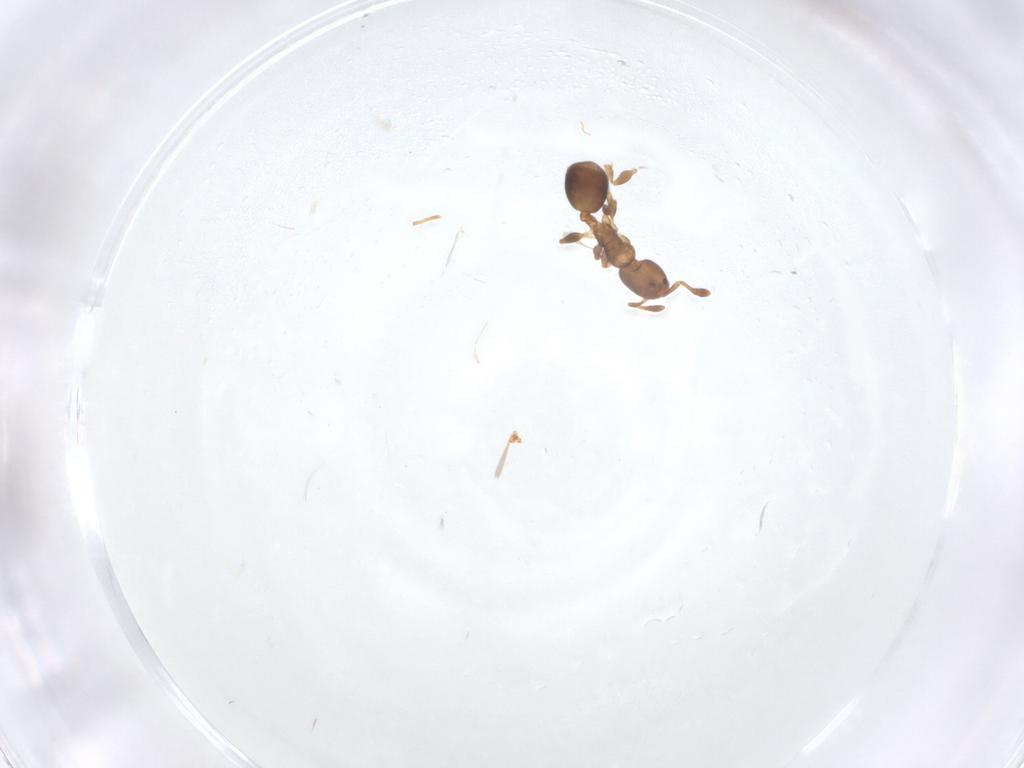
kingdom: Animalia
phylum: Arthropoda
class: Insecta
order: Hymenoptera
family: Formicidae
